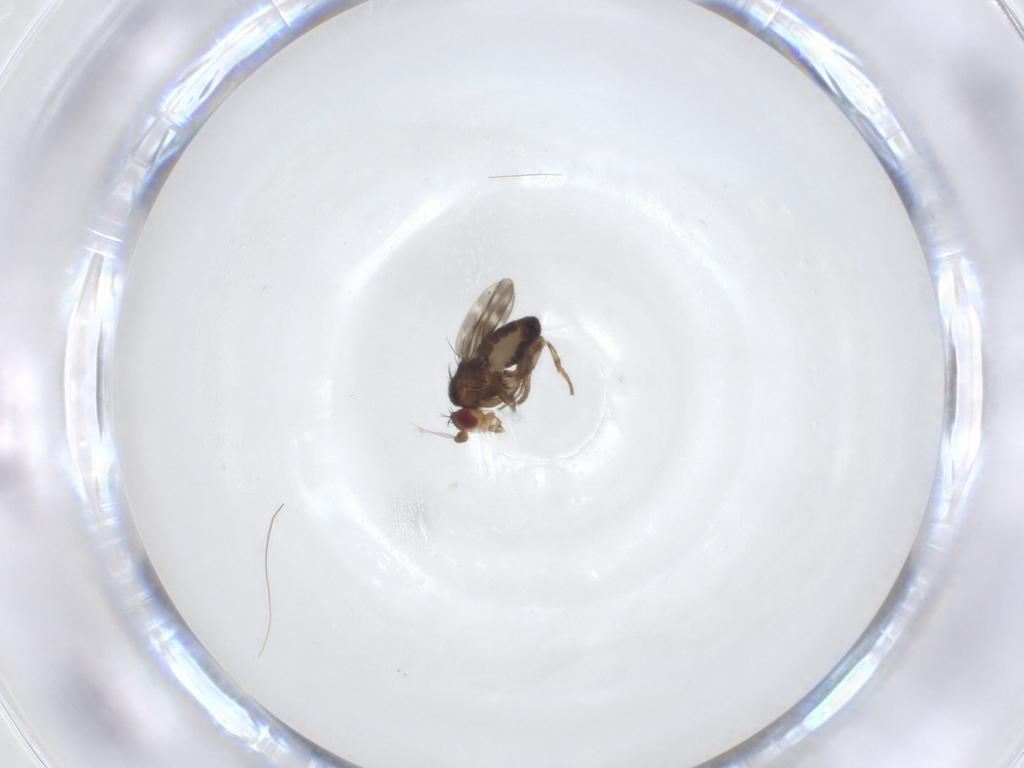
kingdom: Animalia
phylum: Arthropoda
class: Insecta
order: Diptera
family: Sphaeroceridae
